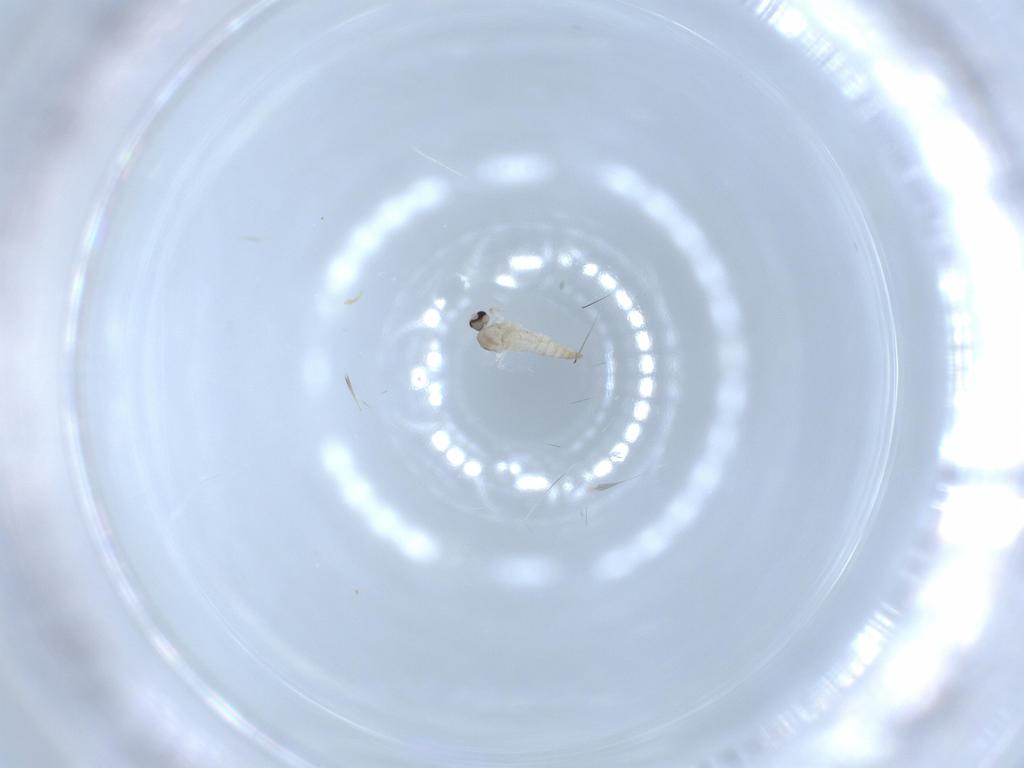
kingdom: Animalia
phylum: Arthropoda
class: Insecta
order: Diptera
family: Cecidomyiidae
